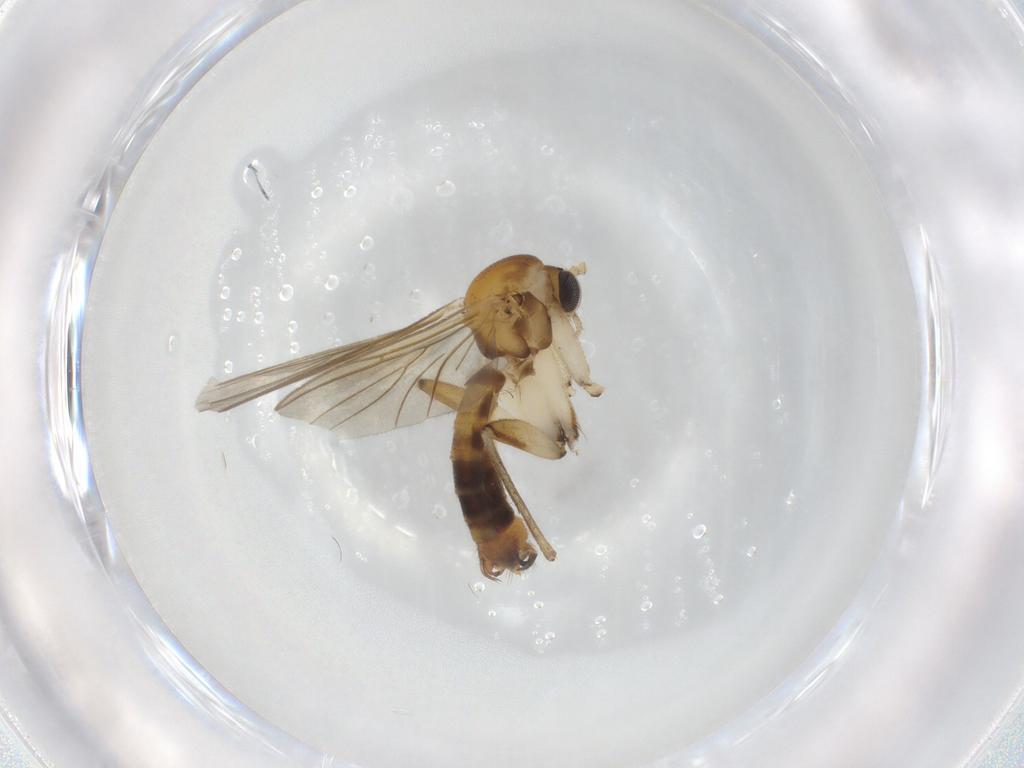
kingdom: Animalia
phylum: Arthropoda
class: Insecta
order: Diptera
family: Mycetophilidae
